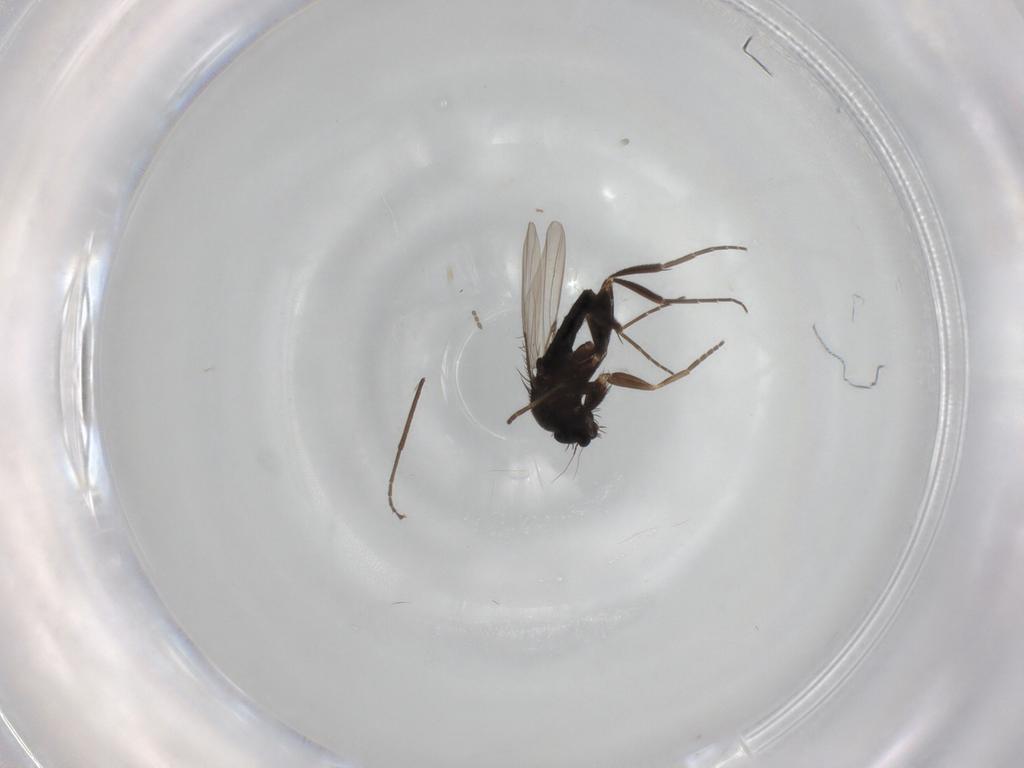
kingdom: Animalia
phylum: Arthropoda
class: Insecta
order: Diptera
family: Phoridae
